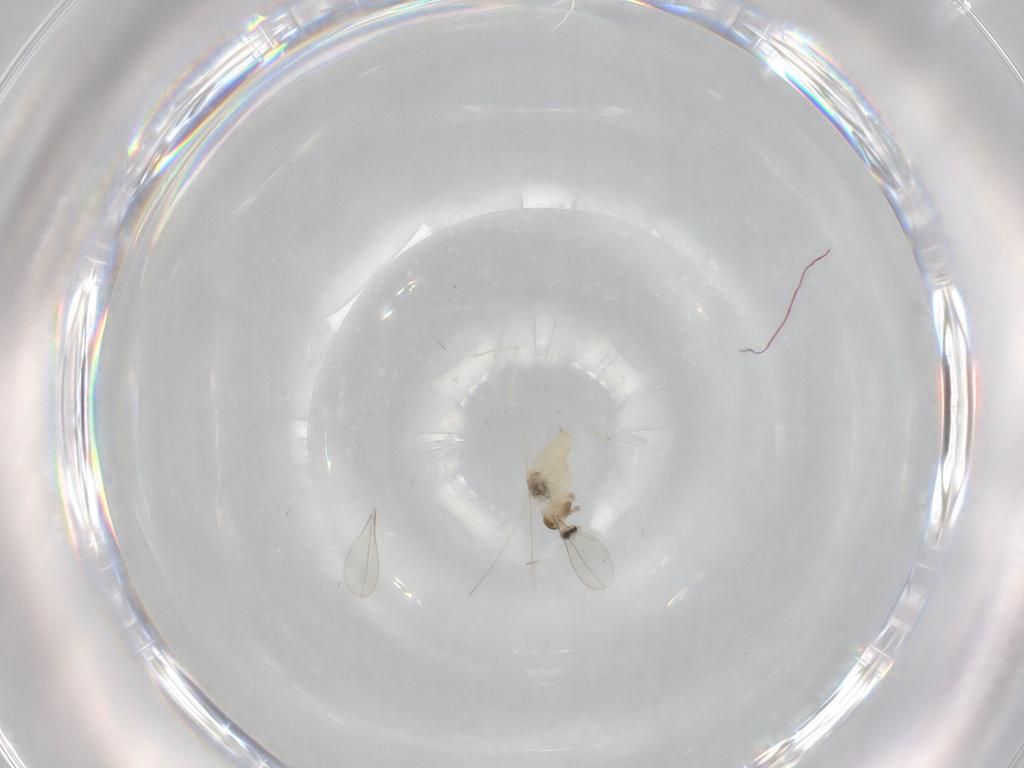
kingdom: Animalia
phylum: Arthropoda
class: Insecta
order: Diptera
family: Cecidomyiidae
